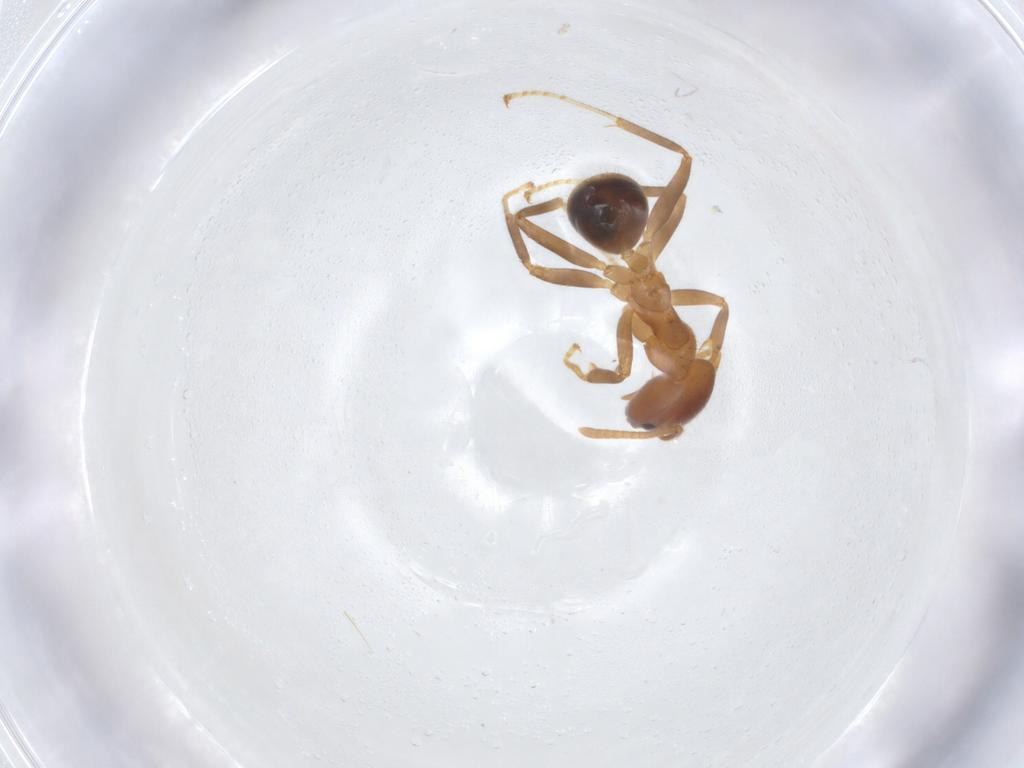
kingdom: Animalia
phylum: Arthropoda
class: Insecta
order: Hymenoptera
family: Formicidae
